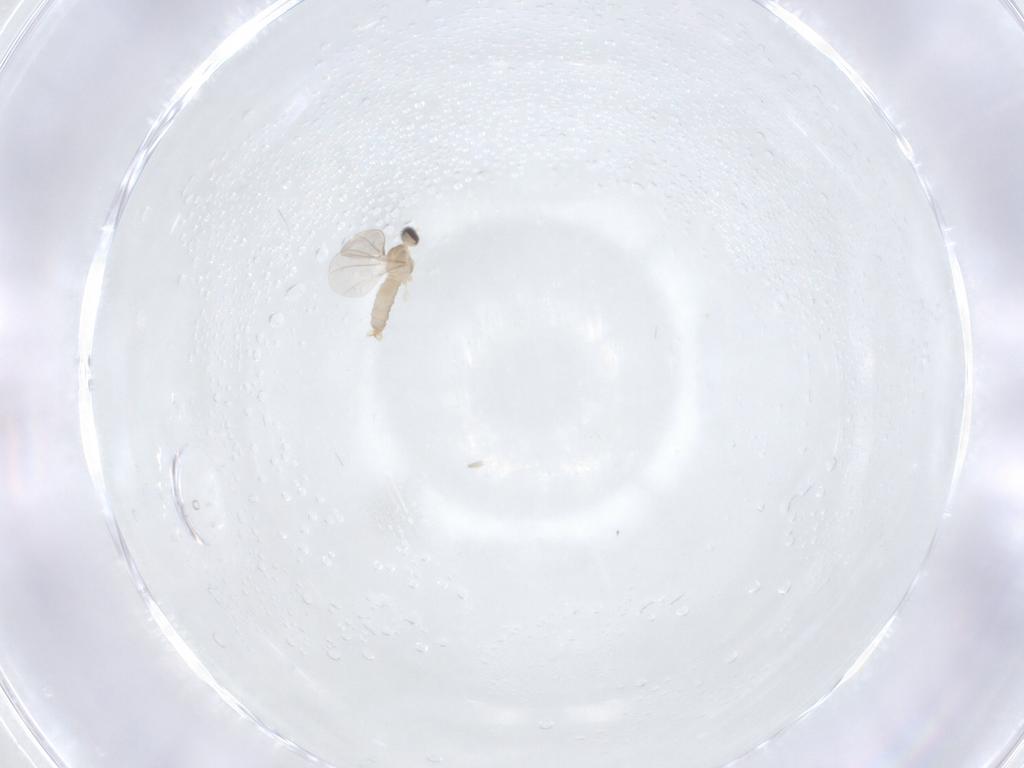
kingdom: Animalia
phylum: Arthropoda
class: Insecta
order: Diptera
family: Cecidomyiidae
